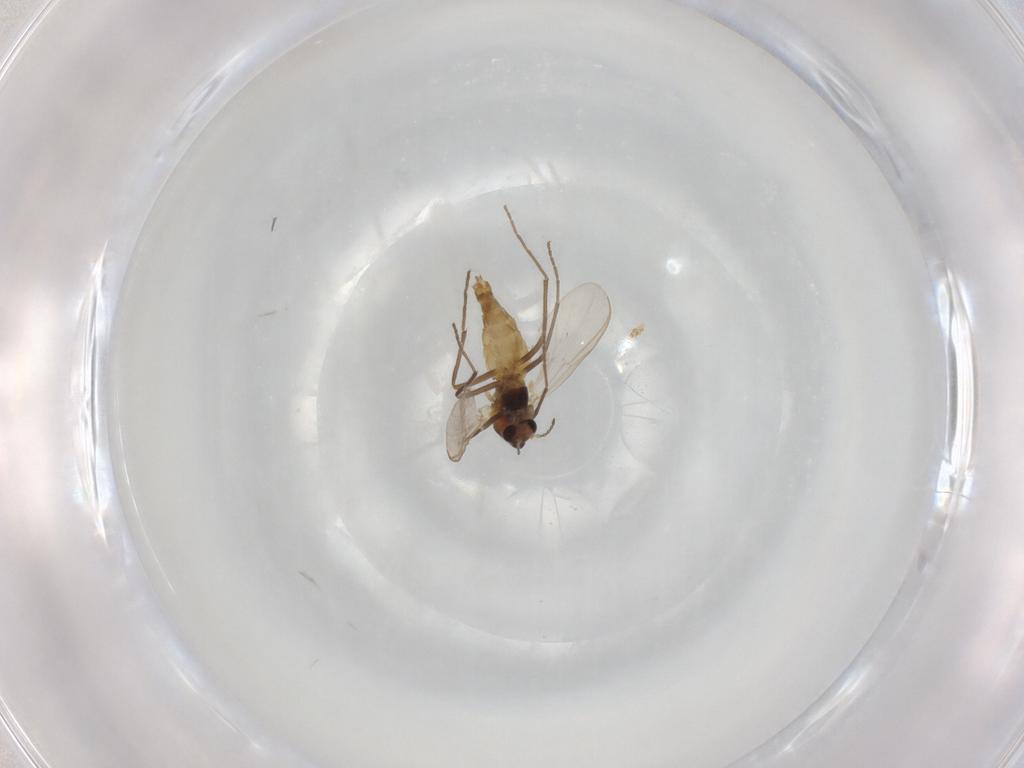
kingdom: Animalia
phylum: Arthropoda
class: Insecta
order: Diptera
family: Chironomidae
